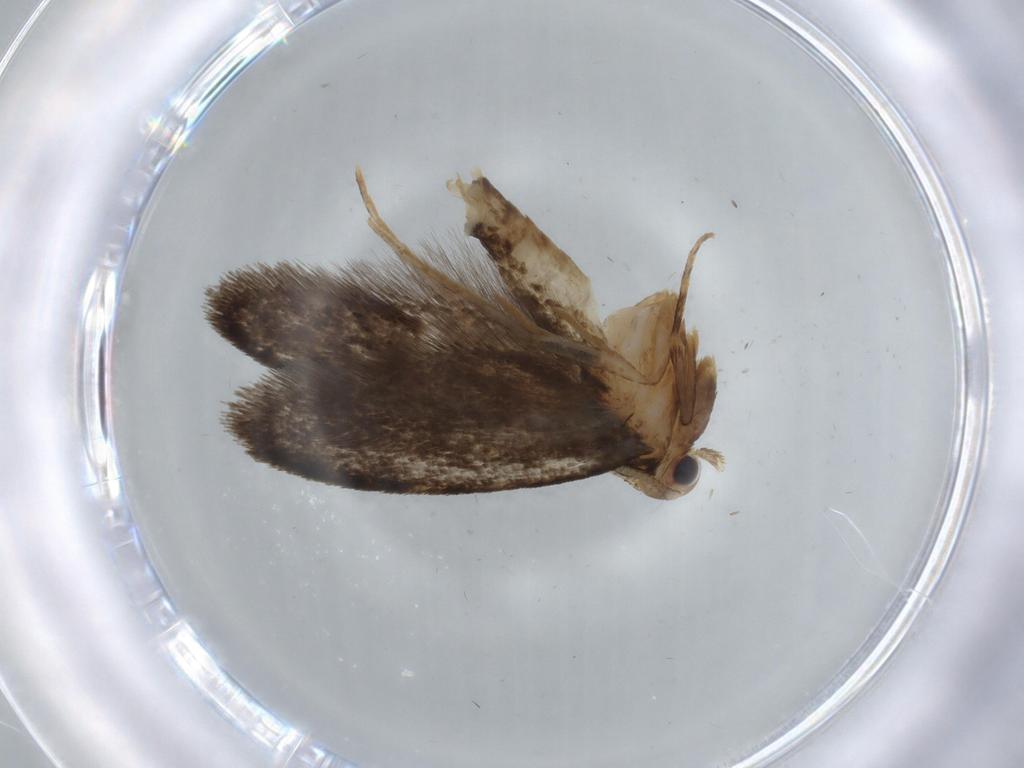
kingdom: Animalia
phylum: Arthropoda
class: Insecta
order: Lepidoptera
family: Tineidae
